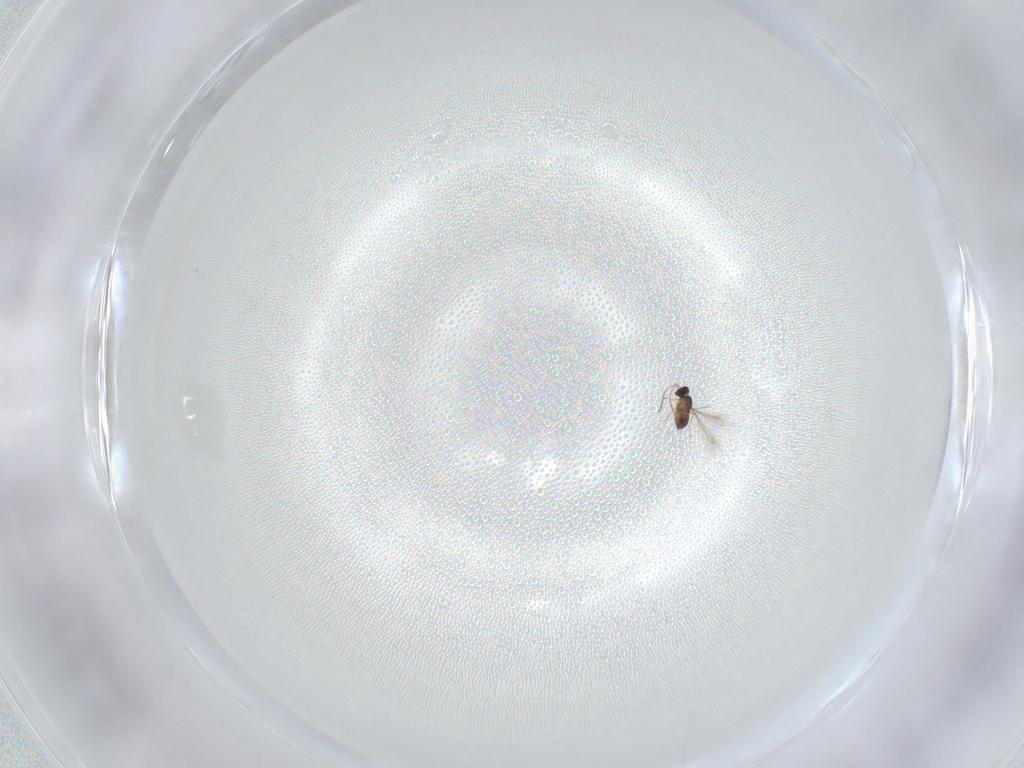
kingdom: Animalia
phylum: Arthropoda
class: Insecta
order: Hymenoptera
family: Mymaridae
